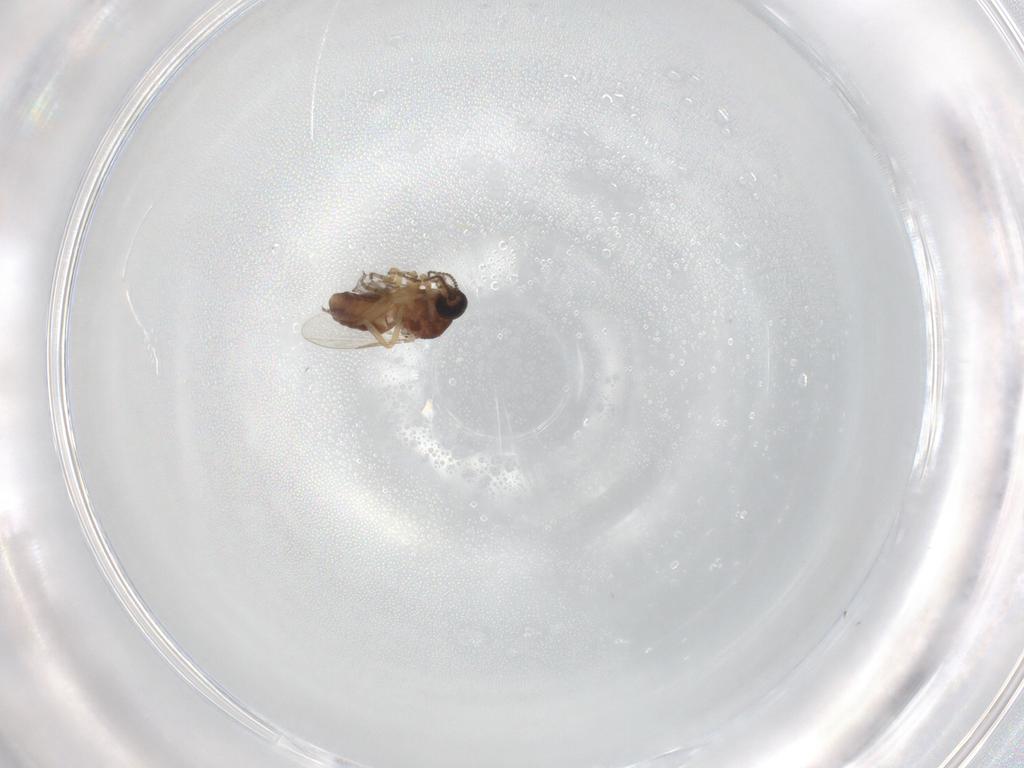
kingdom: Animalia
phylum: Arthropoda
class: Insecta
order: Diptera
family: Ceratopogonidae
